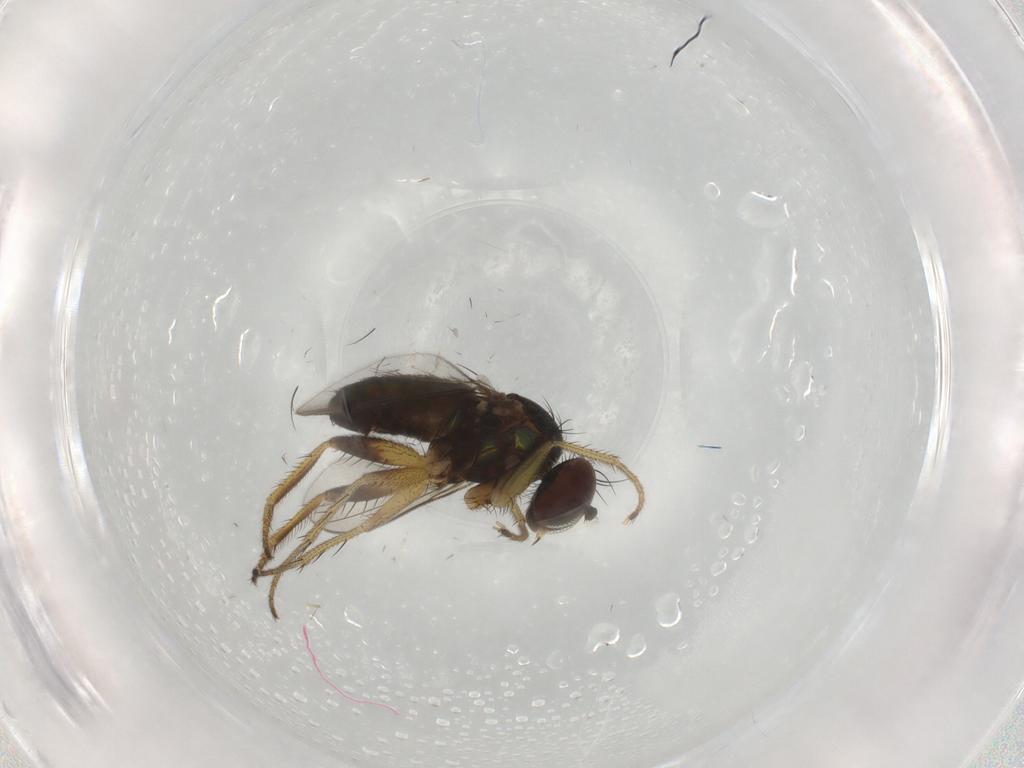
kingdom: Animalia
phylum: Arthropoda
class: Insecta
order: Diptera
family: Dolichopodidae
